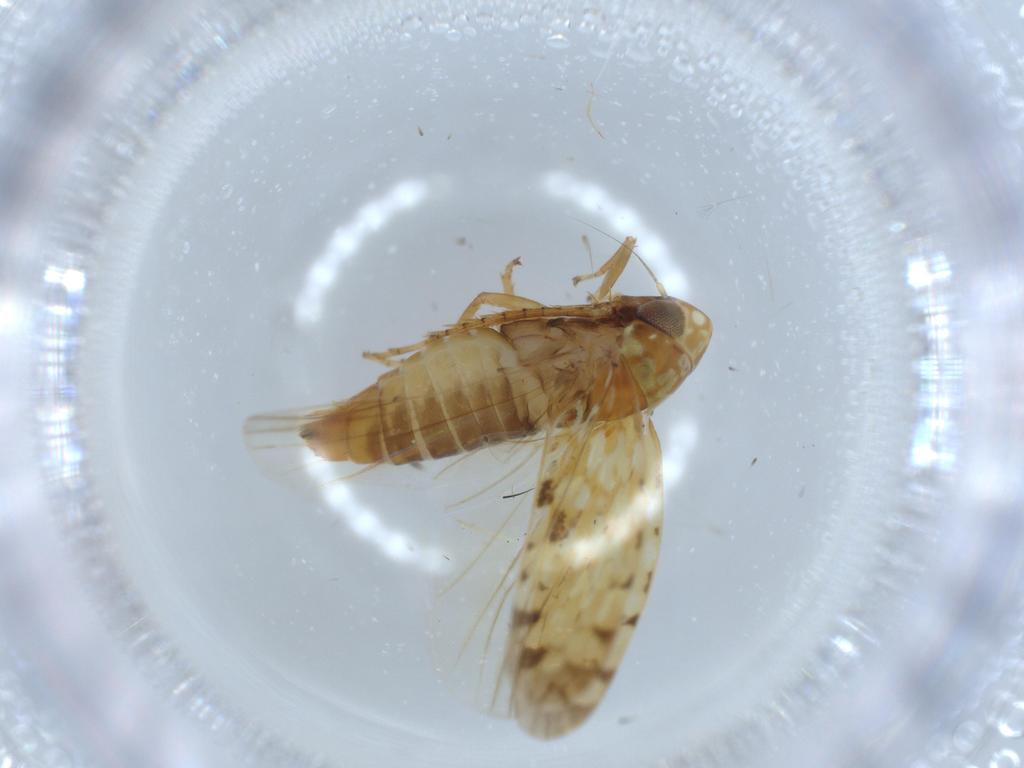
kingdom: Animalia
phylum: Arthropoda
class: Insecta
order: Hemiptera
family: Cicadellidae
